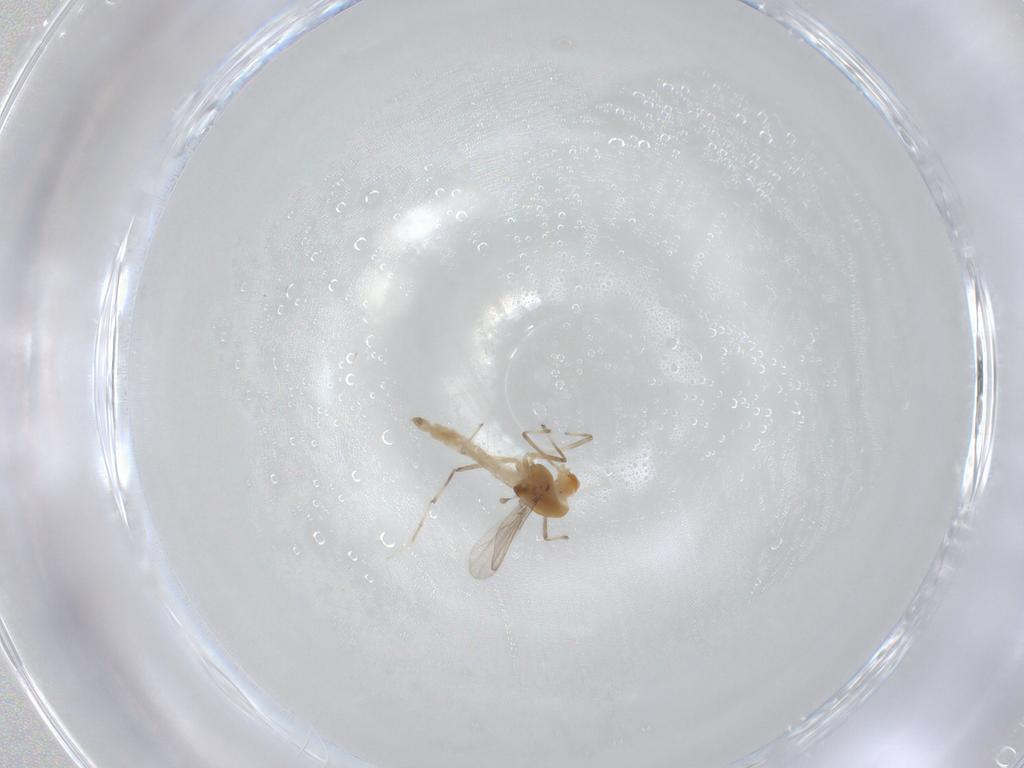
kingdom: Animalia
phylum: Arthropoda
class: Insecta
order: Diptera
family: Chironomidae
